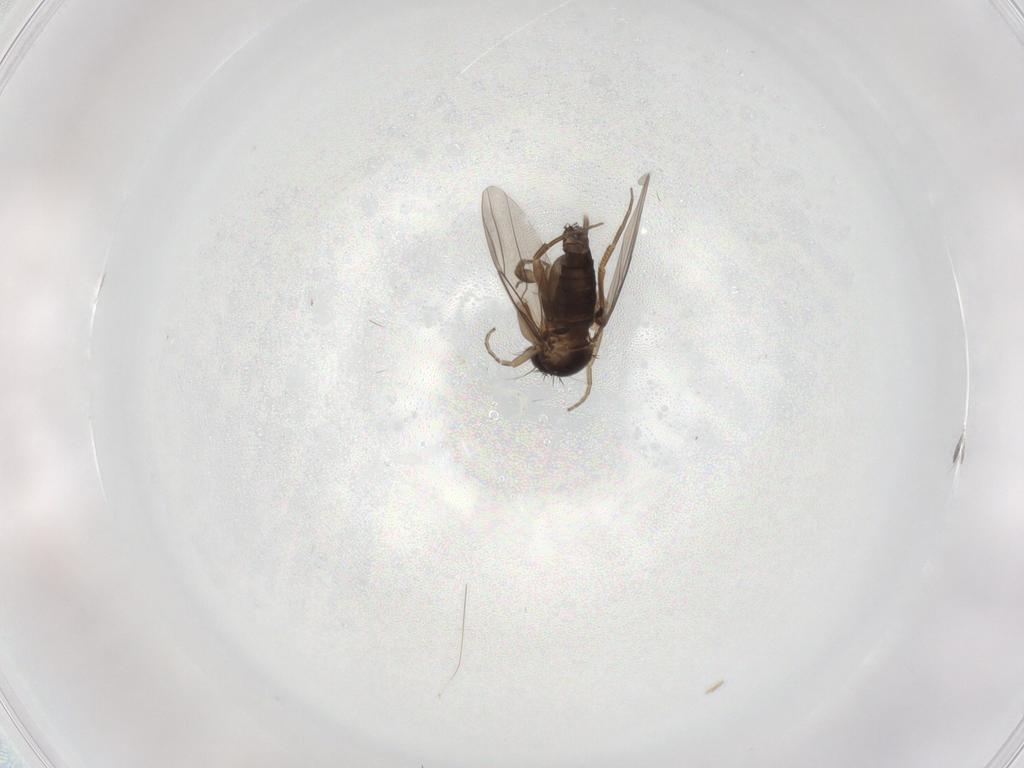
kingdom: Animalia
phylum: Arthropoda
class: Insecta
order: Diptera
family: Phoridae
